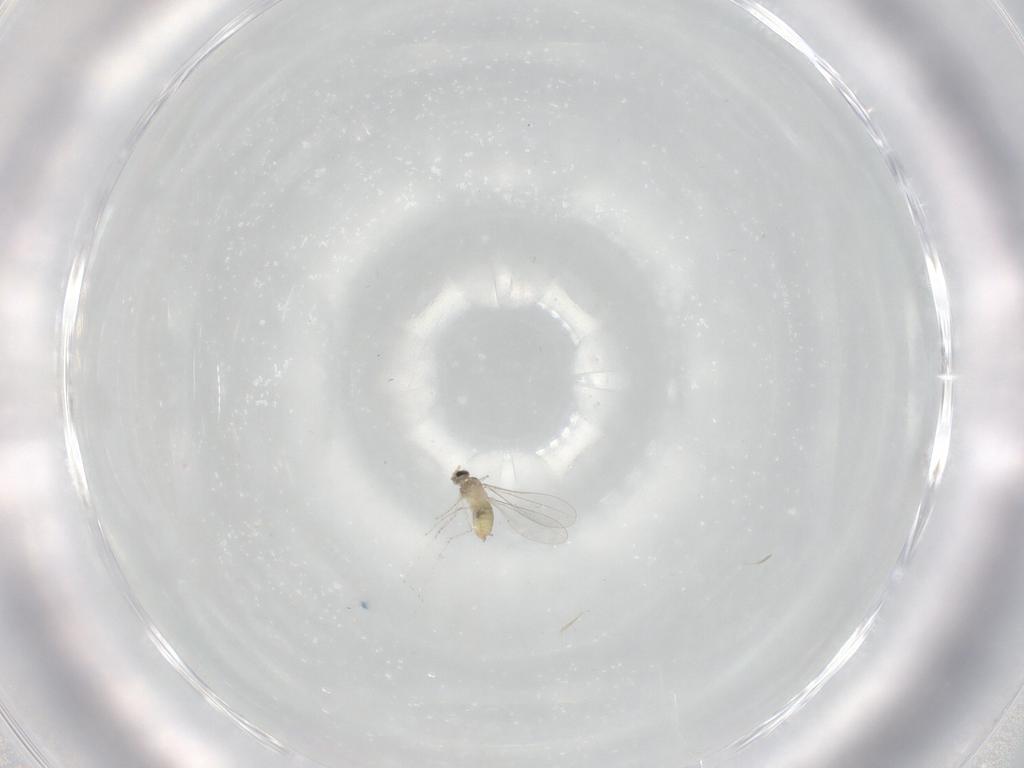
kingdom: Animalia
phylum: Arthropoda
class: Insecta
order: Diptera
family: Cecidomyiidae
